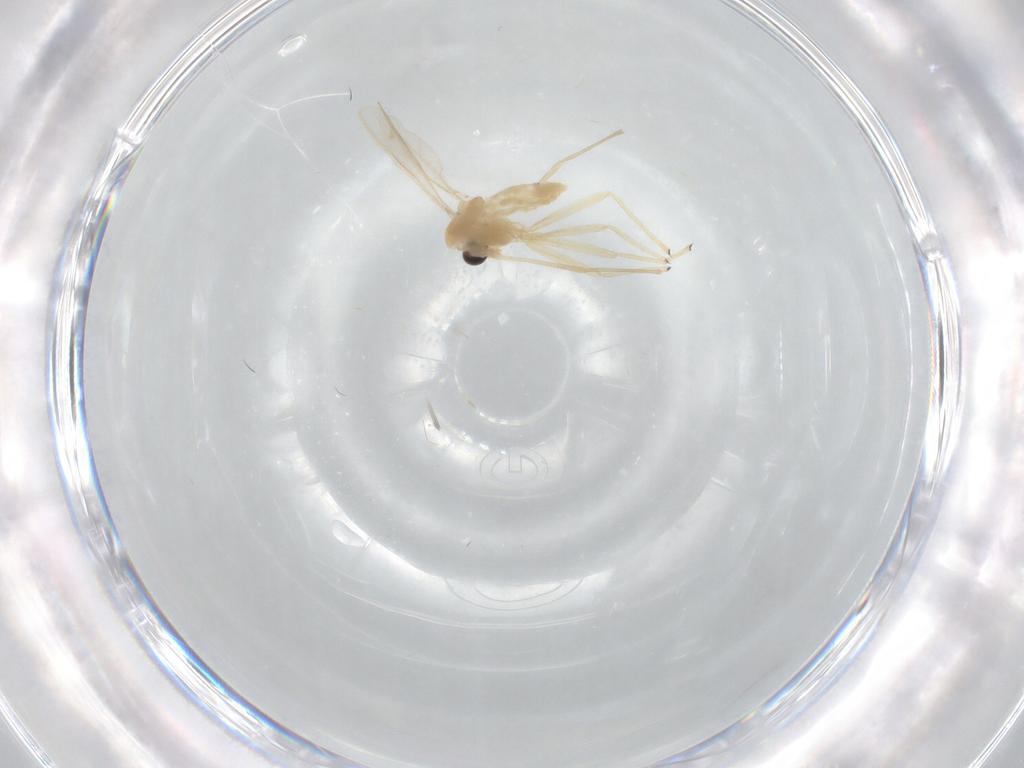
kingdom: Animalia
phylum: Arthropoda
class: Insecta
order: Diptera
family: Chironomidae
